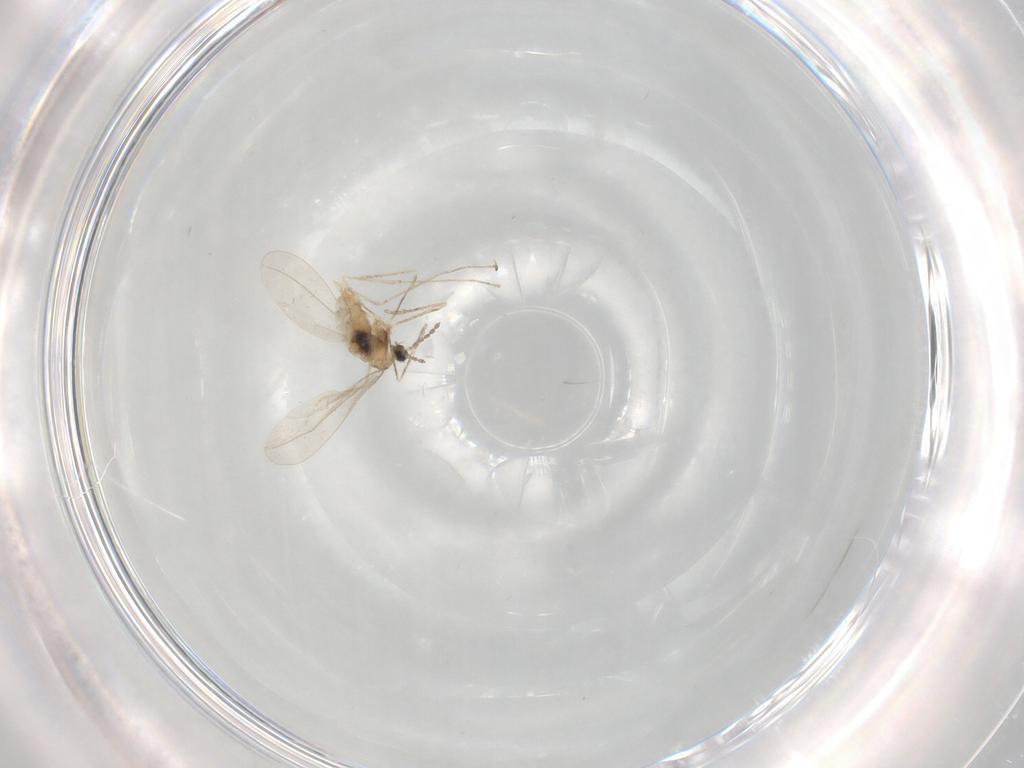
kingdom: Animalia
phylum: Arthropoda
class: Insecta
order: Diptera
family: Cecidomyiidae
